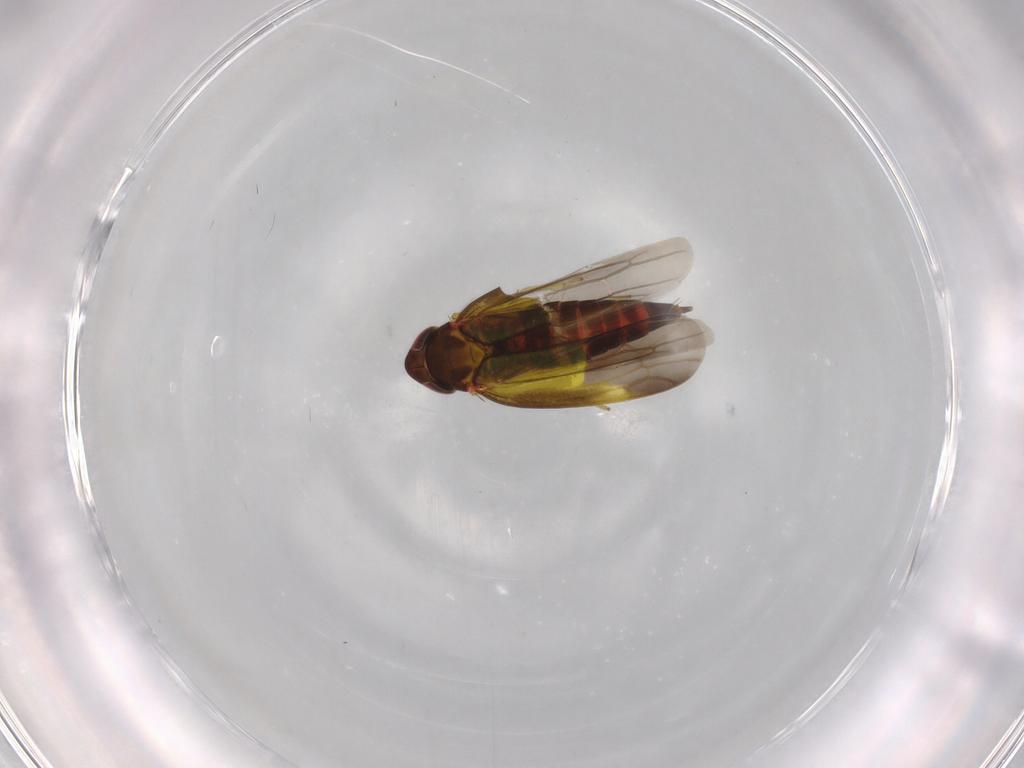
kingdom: Animalia
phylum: Arthropoda
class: Insecta
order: Hemiptera
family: Cicadellidae
